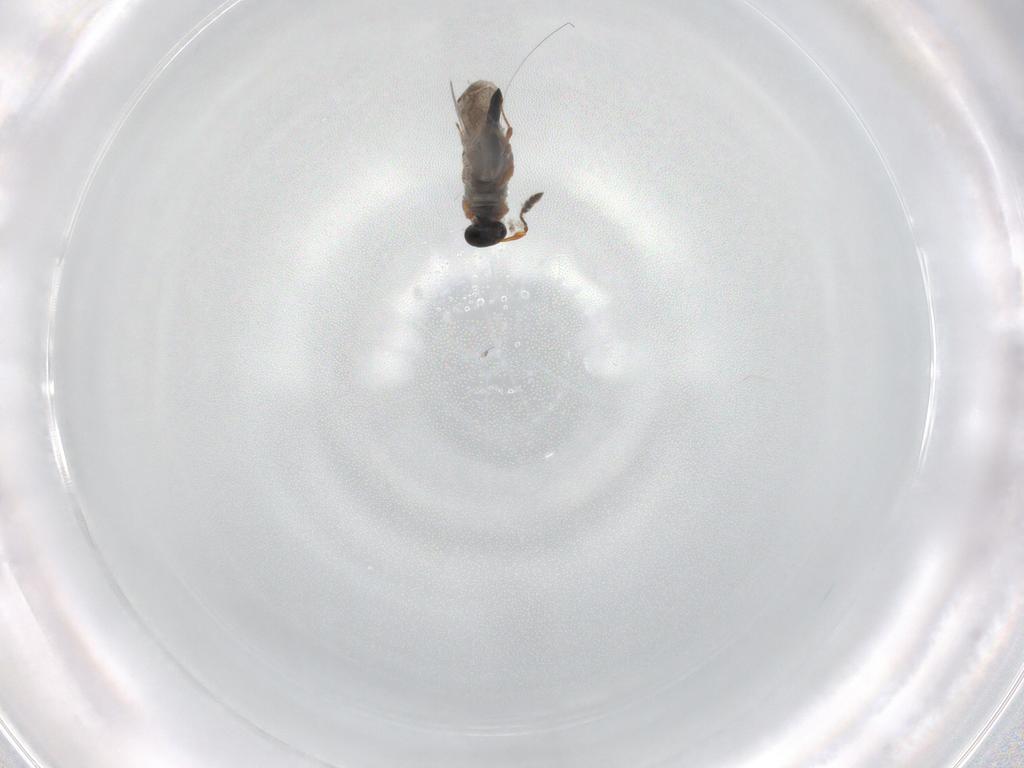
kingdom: Animalia
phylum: Arthropoda
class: Insecta
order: Hymenoptera
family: Platygastridae
